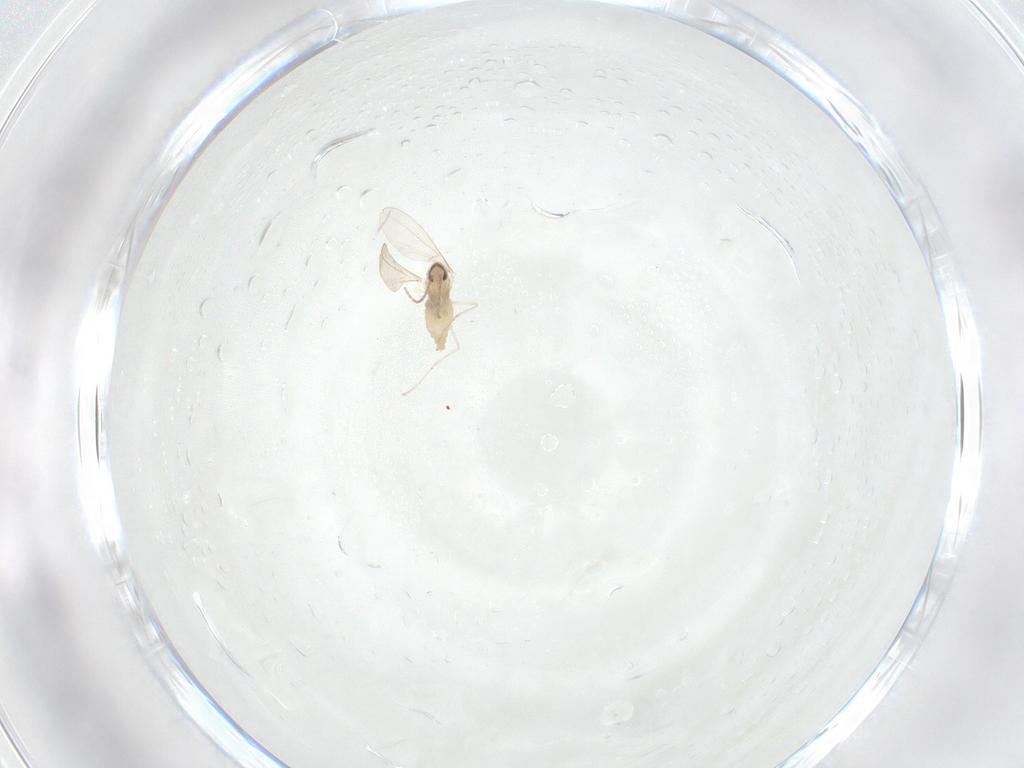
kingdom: Animalia
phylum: Arthropoda
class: Insecta
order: Diptera
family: Cecidomyiidae
